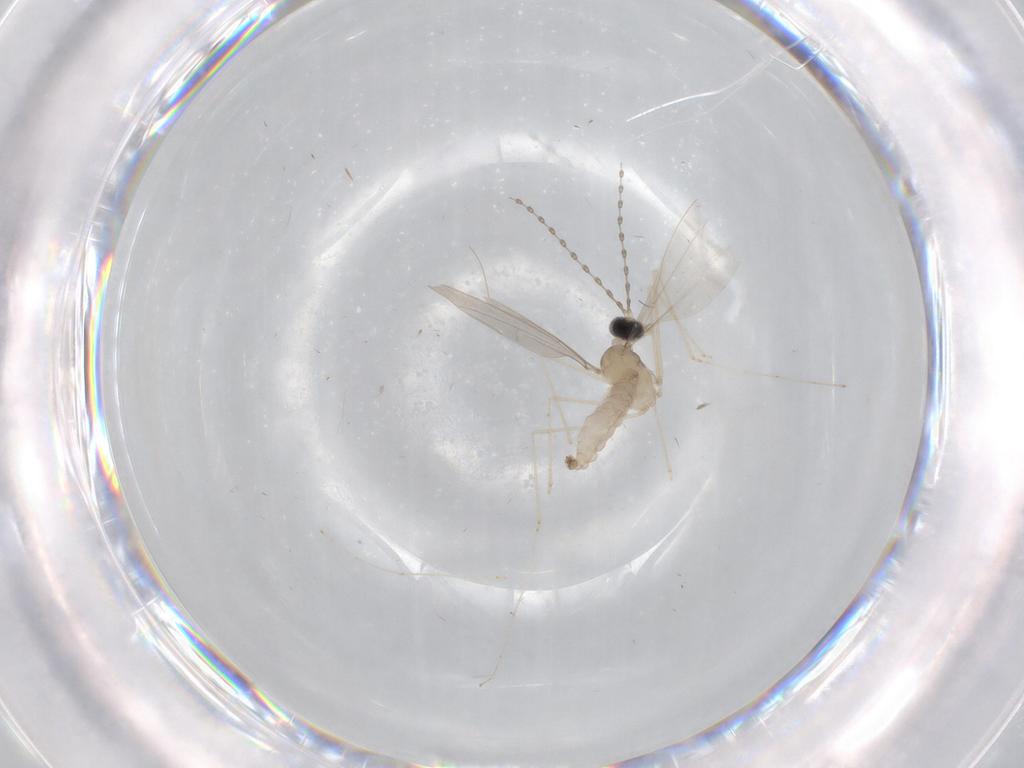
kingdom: Animalia
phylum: Arthropoda
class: Insecta
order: Diptera
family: Cecidomyiidae
